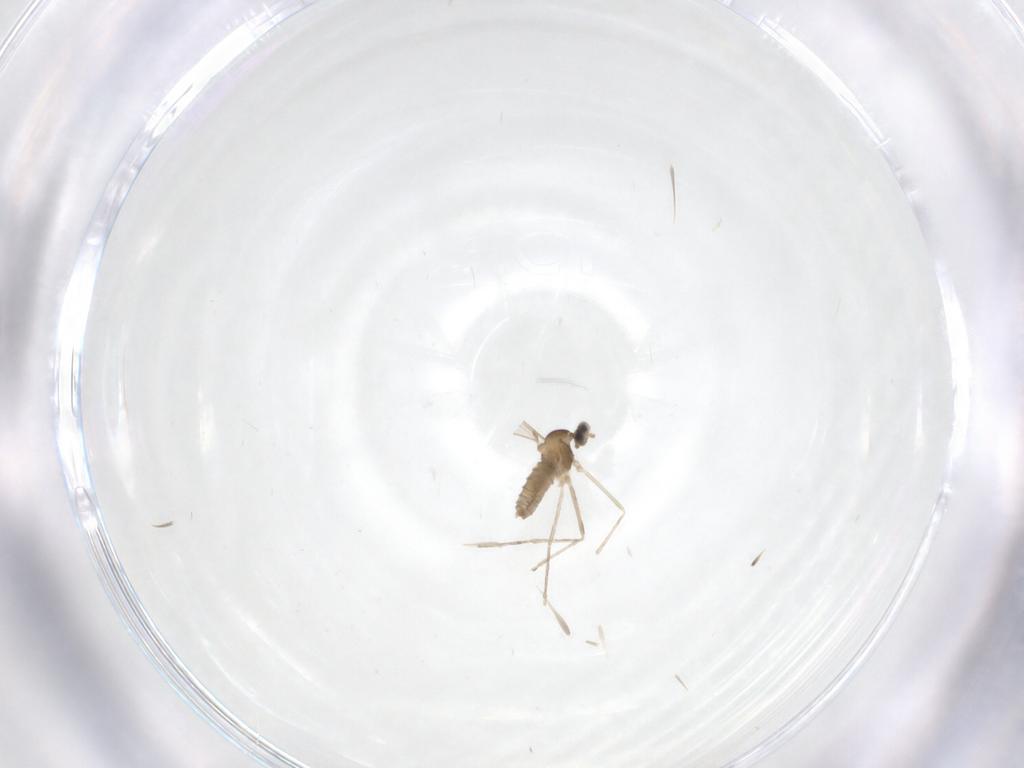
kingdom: Animalia
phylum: Arthropoda
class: Insecta
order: Diptera
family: Cecidomyiidae
